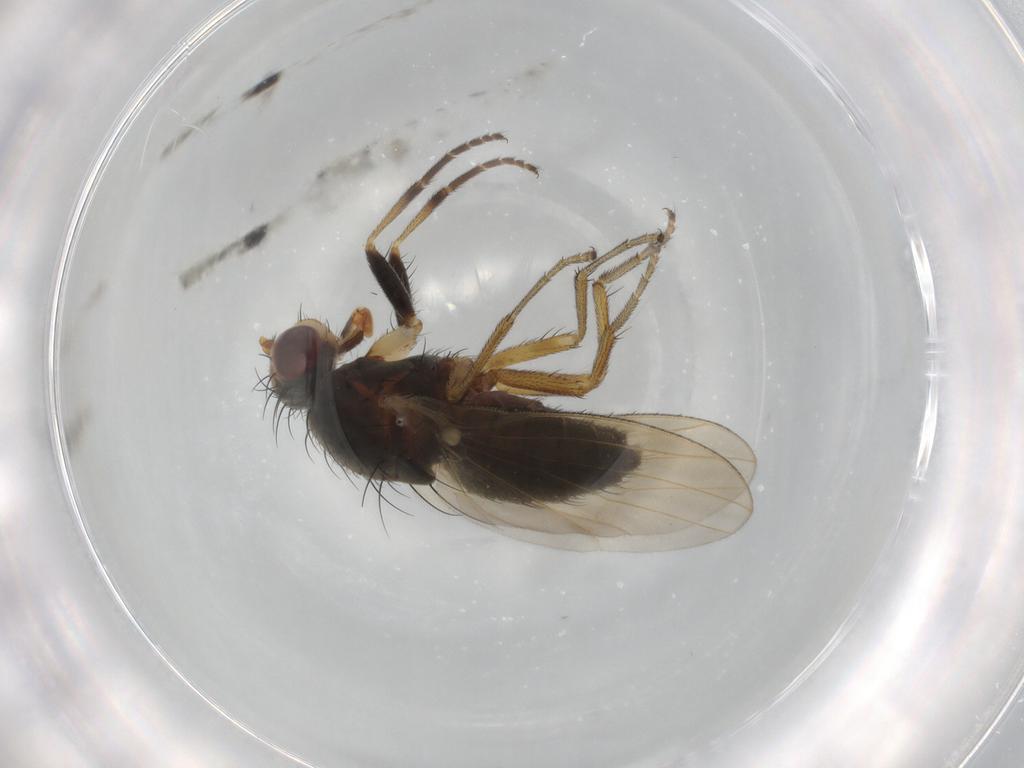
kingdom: Animalia
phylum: Arthropoda
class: Insecta
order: Diptera
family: Ulidiidae
